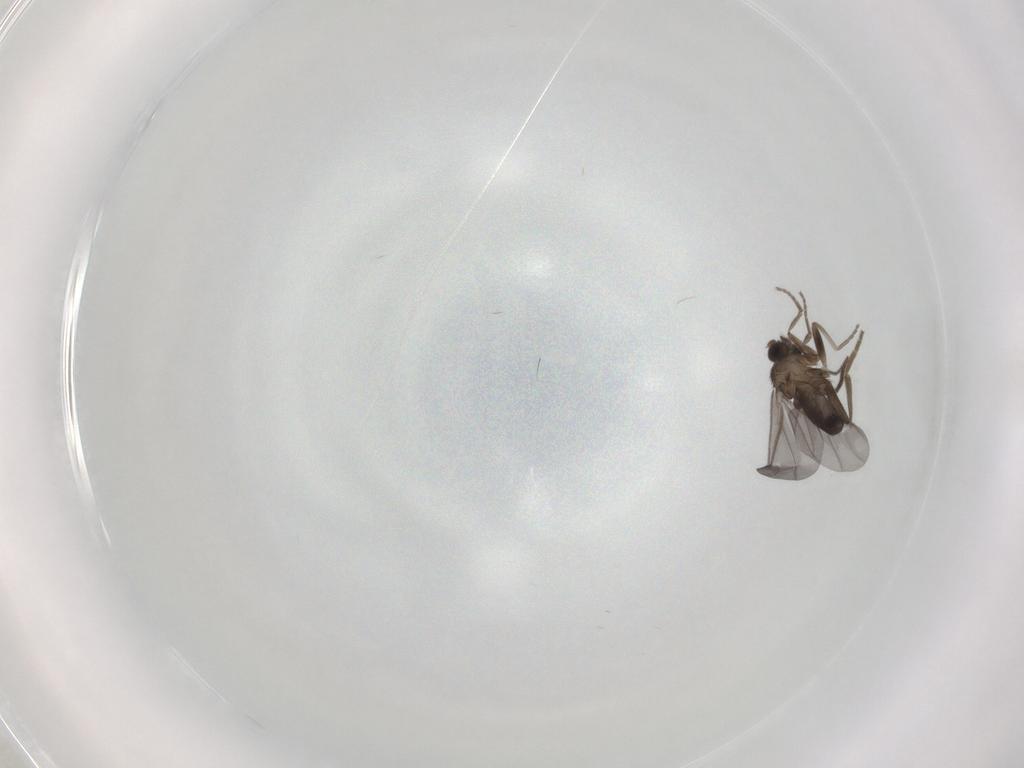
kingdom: Animalia
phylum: Arthropoda
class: Insecta
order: Diptera
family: Phoridae
